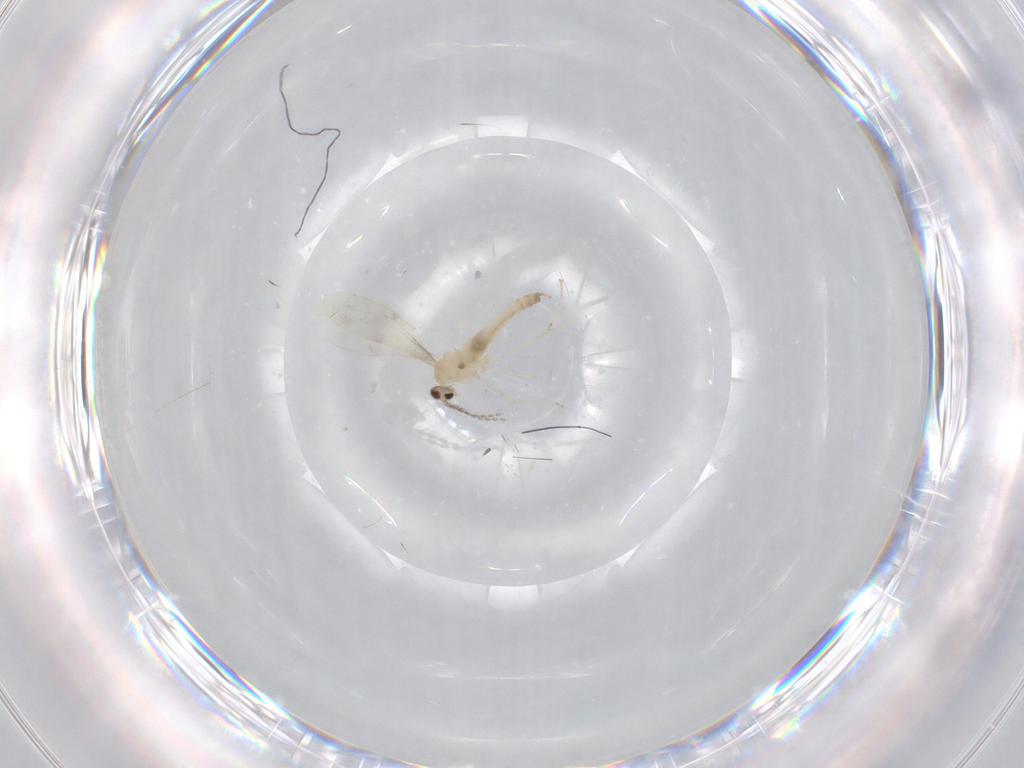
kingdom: Animalia
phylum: Arthropoda
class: Insecta
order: Diptera
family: Cecidomyiidae
